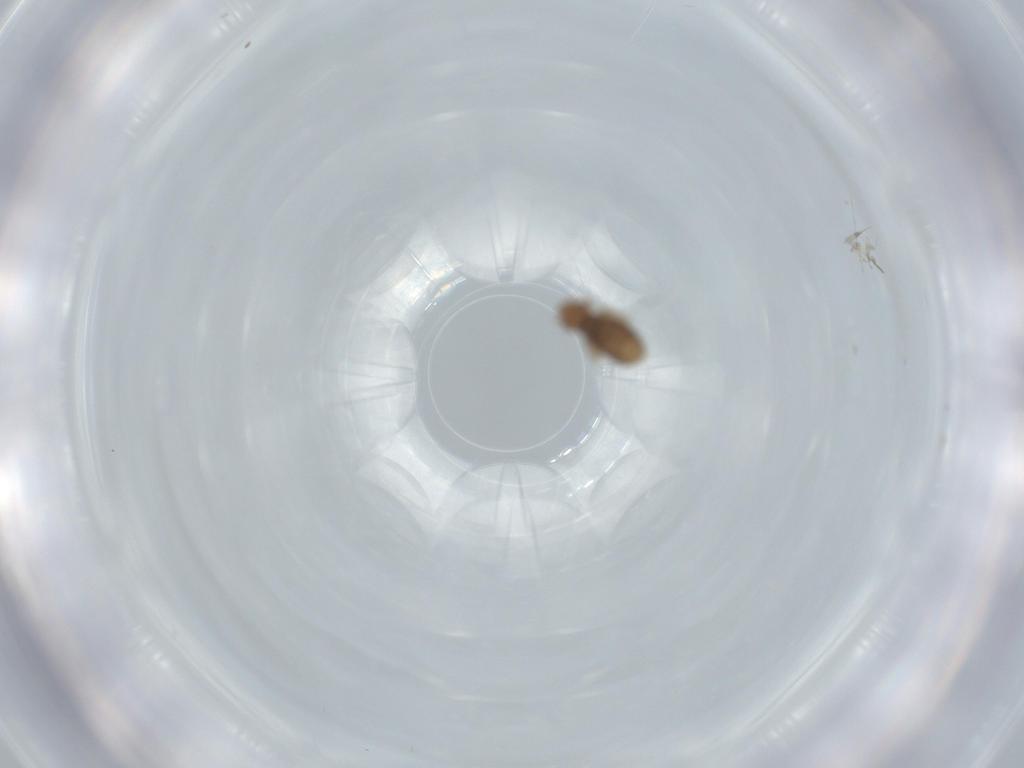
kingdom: Animalia
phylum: Arthropoda
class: Insecta
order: Psocodea
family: Liposcelididae
